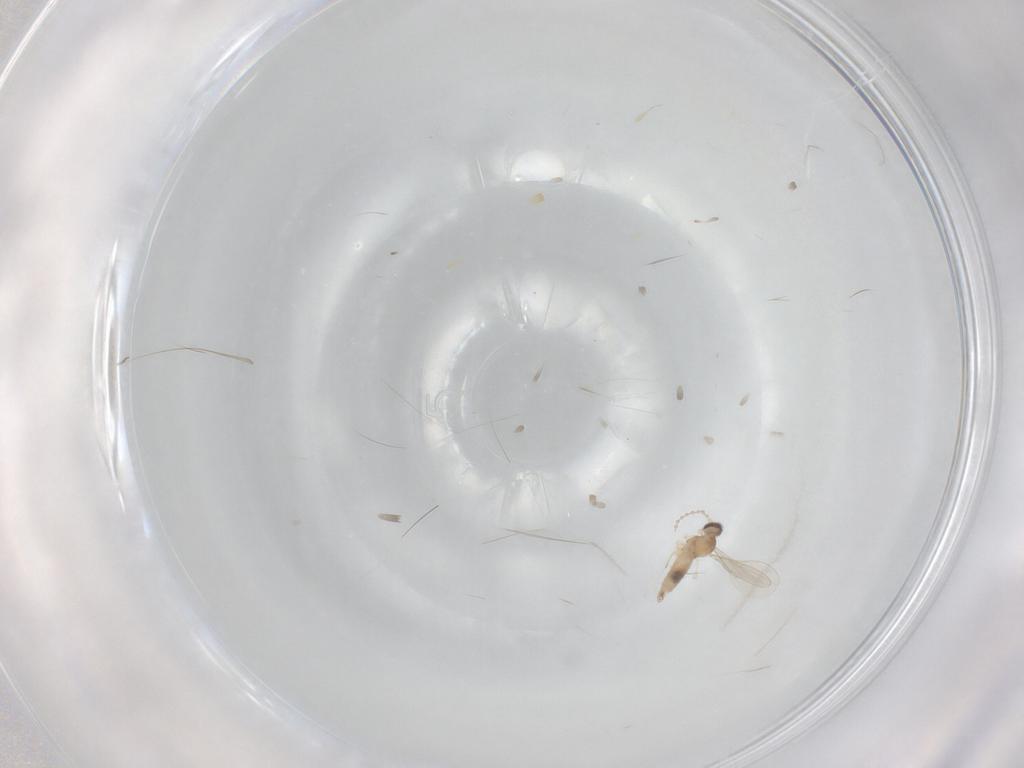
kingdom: Animalia
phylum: Arthropoda
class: Insecta
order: Diptera
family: Cecidomyiidae
